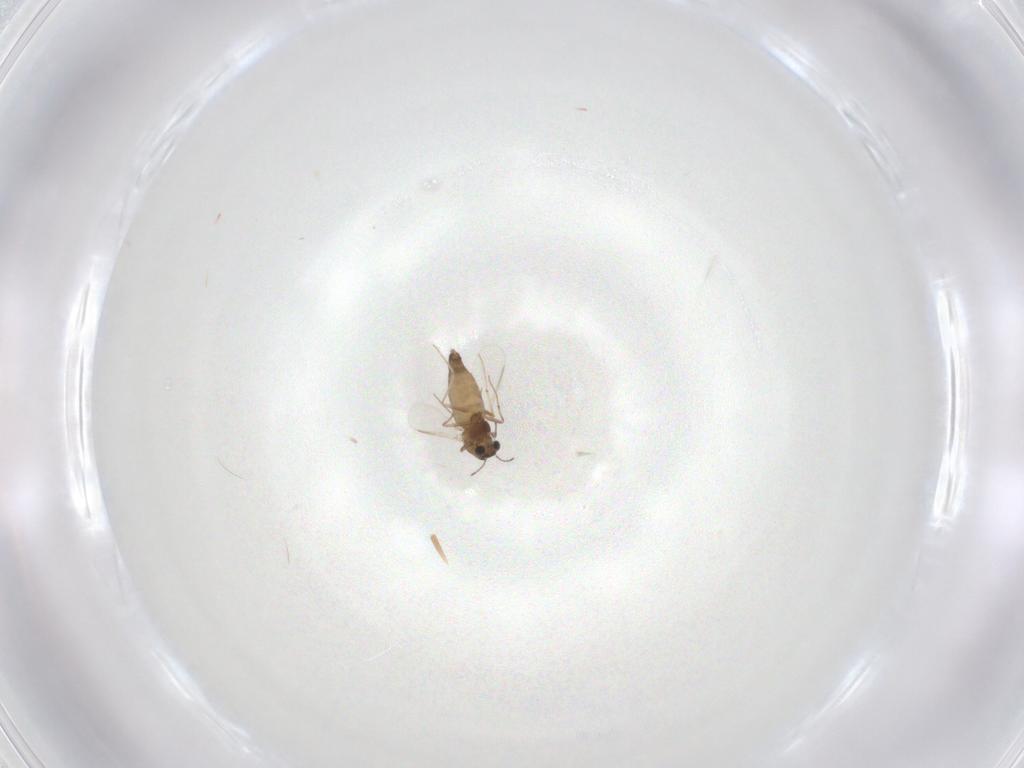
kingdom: Animalia
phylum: Arthropoda
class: Insecta
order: Diptera
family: Chironomidae
